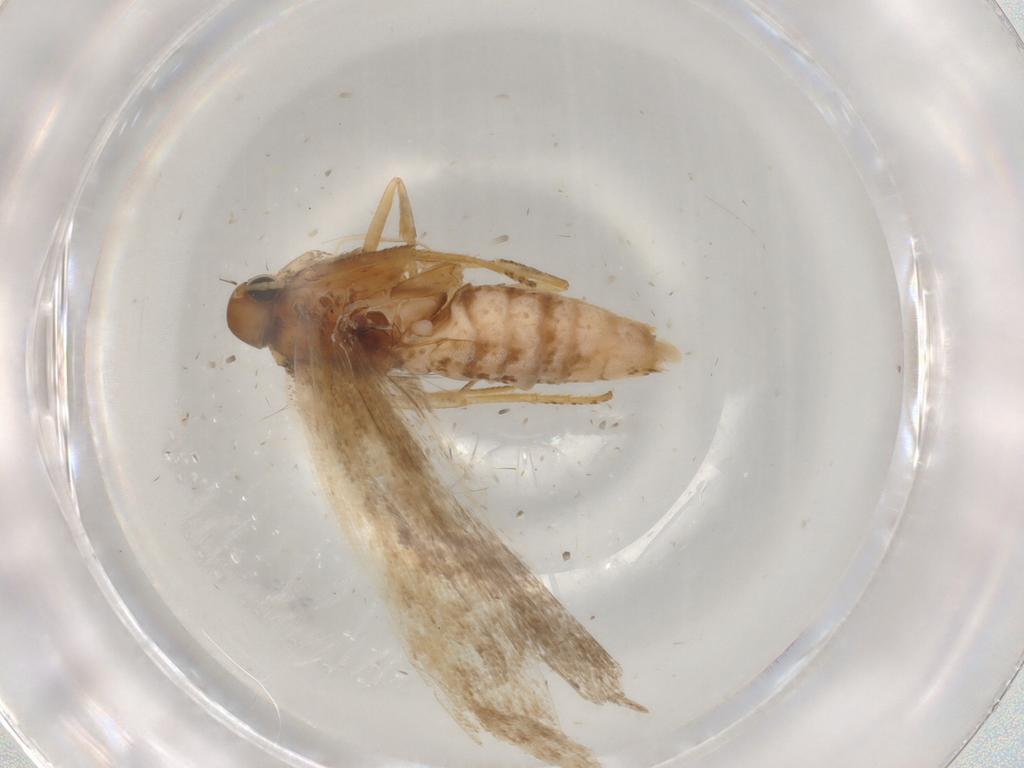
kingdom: Animalia
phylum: Arthropoda
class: Insecta
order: Lepidoptera
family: Gelechiidae
